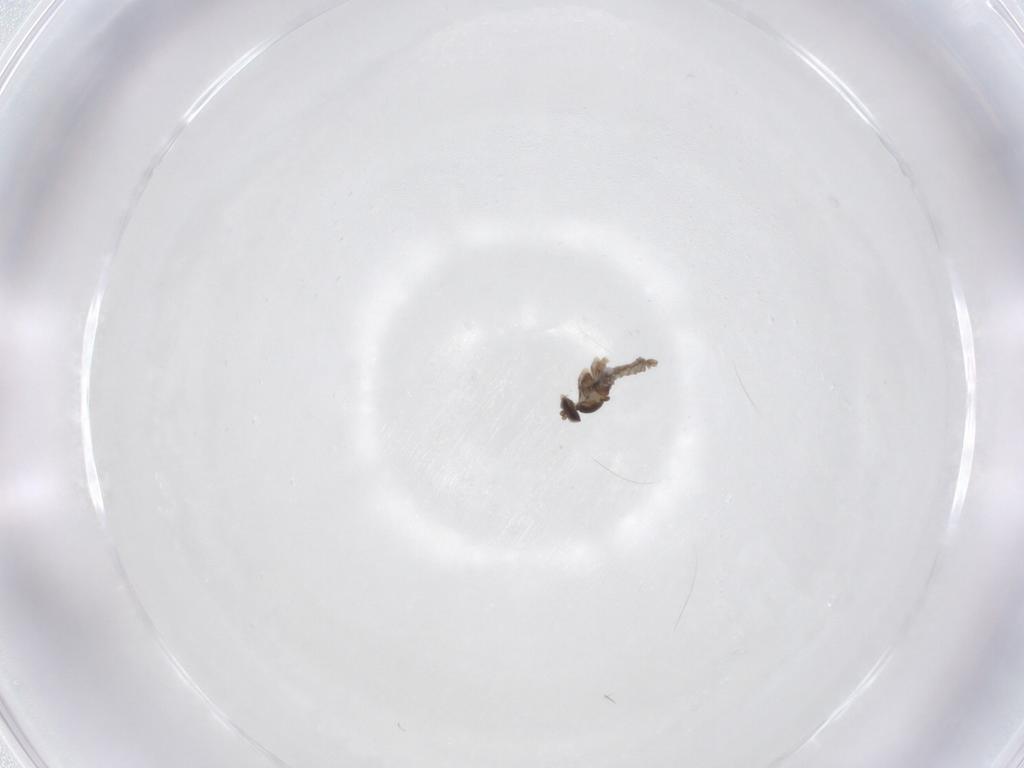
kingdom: Animalia
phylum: Arthropoda
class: Insecta
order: Diptera
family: Cecidomyiidae
